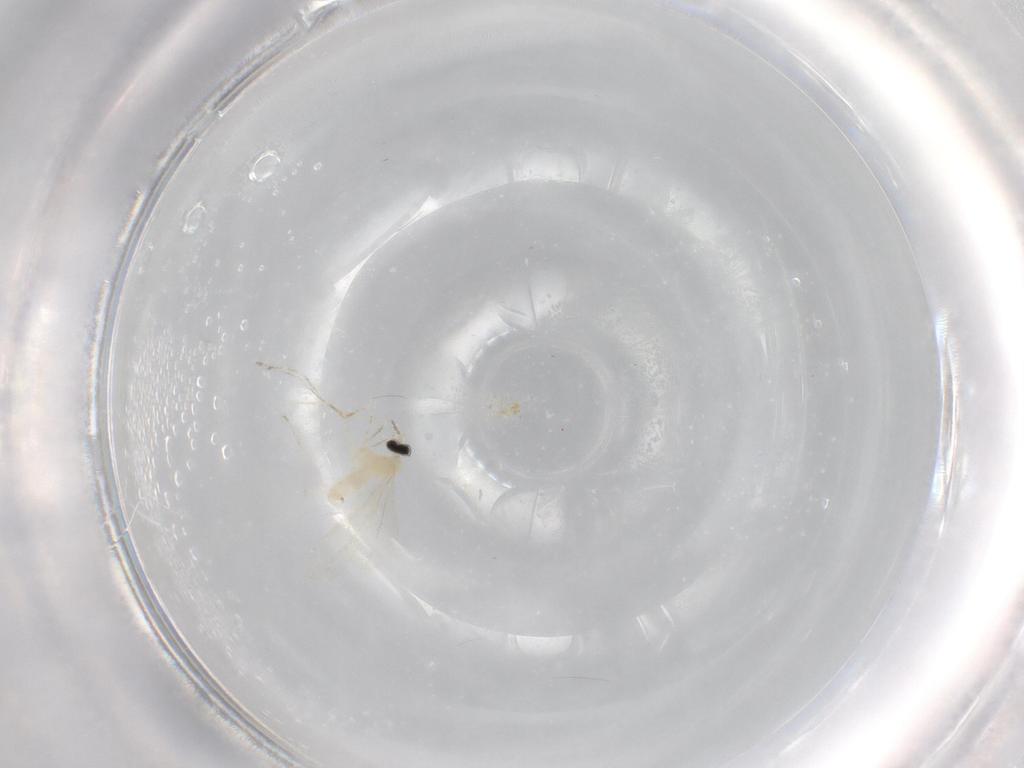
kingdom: Animalia
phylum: Arthropoda
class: Insecta
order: Diptera
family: Cecidomyiidae
